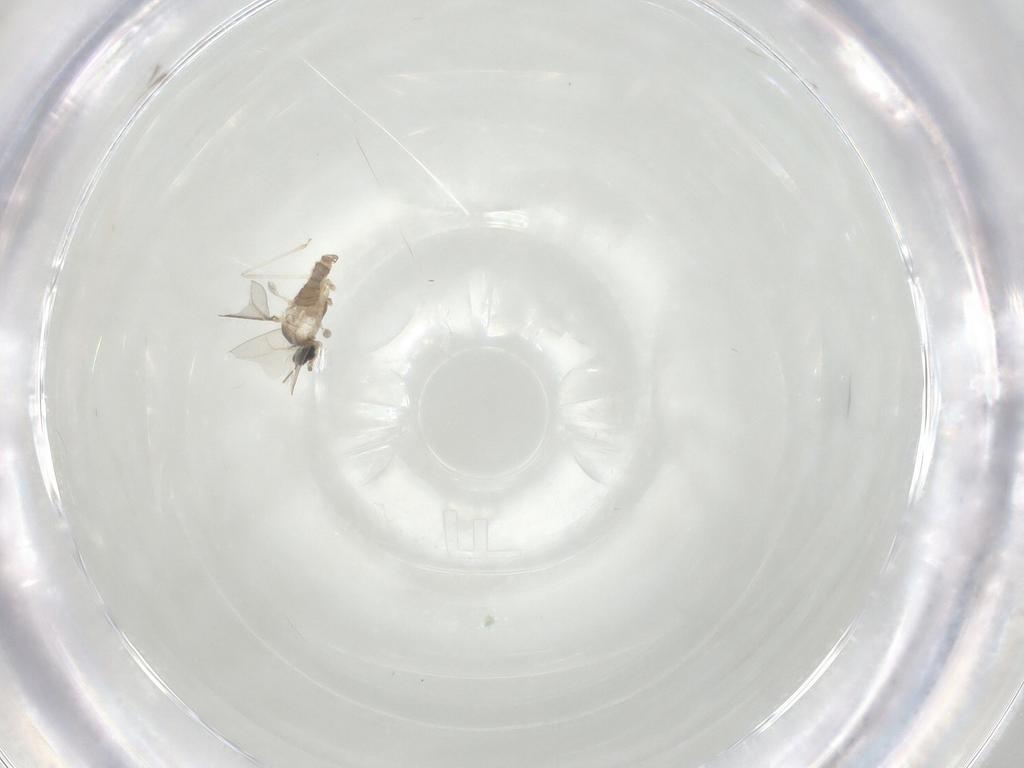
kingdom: Animalia
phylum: Arthropoda
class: Insecta
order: Diptera
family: Cecidomyiidae
